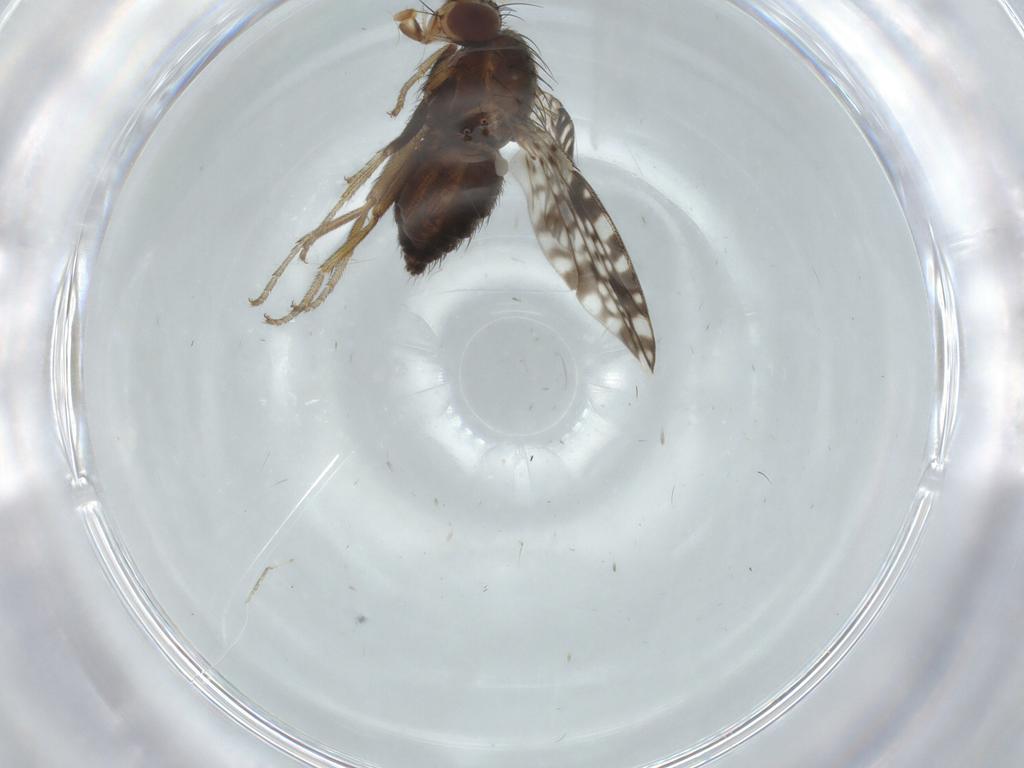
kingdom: Animalia
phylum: Arthropoda
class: Insecta
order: Diptera
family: Tephritidae
